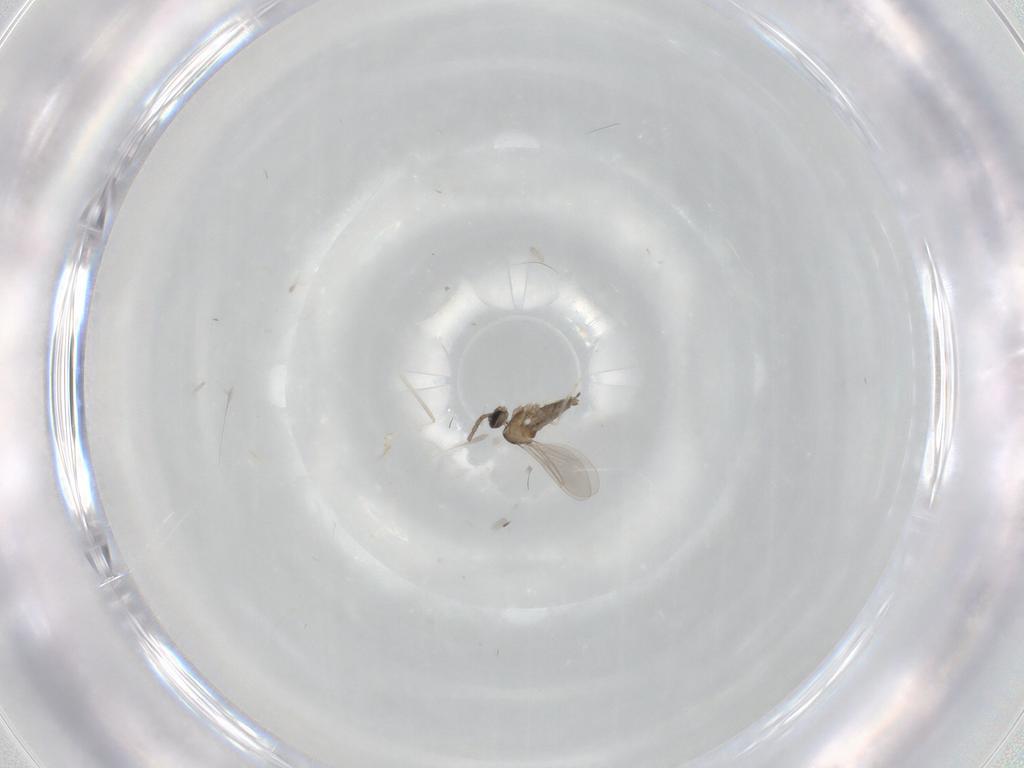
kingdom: Animalia
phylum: Arthropoda
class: Insecta
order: Diptera
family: Cecidomyiidae
